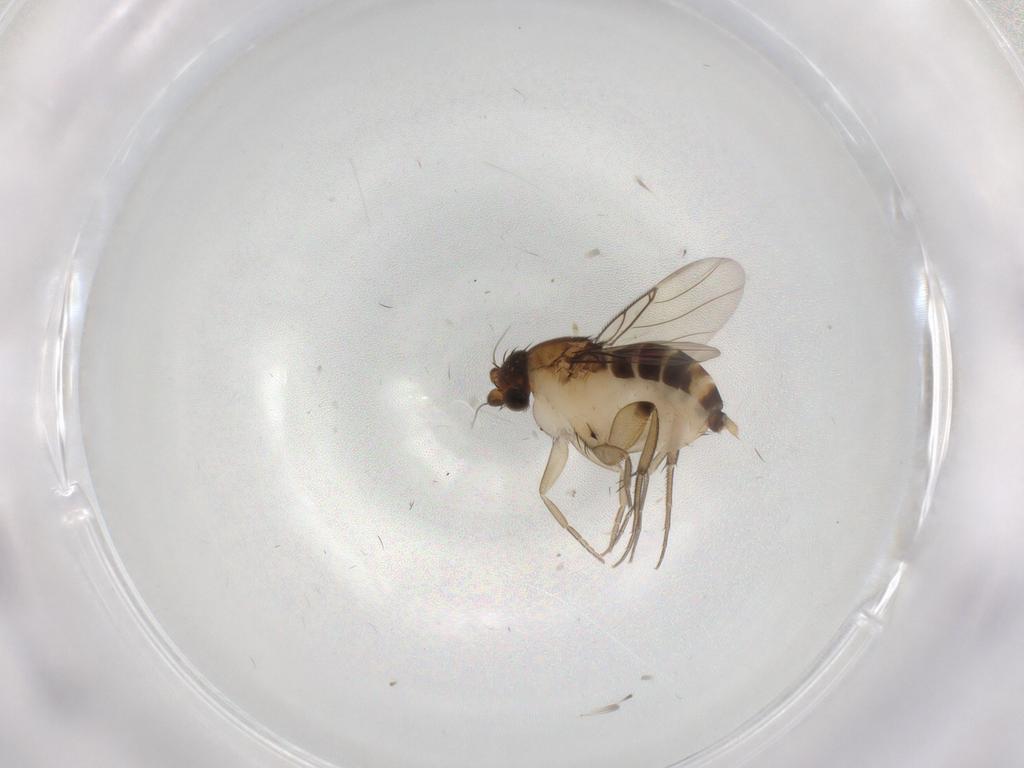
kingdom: Animalia
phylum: Arthropoda
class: Insecta
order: Diptera
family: Phoridae
